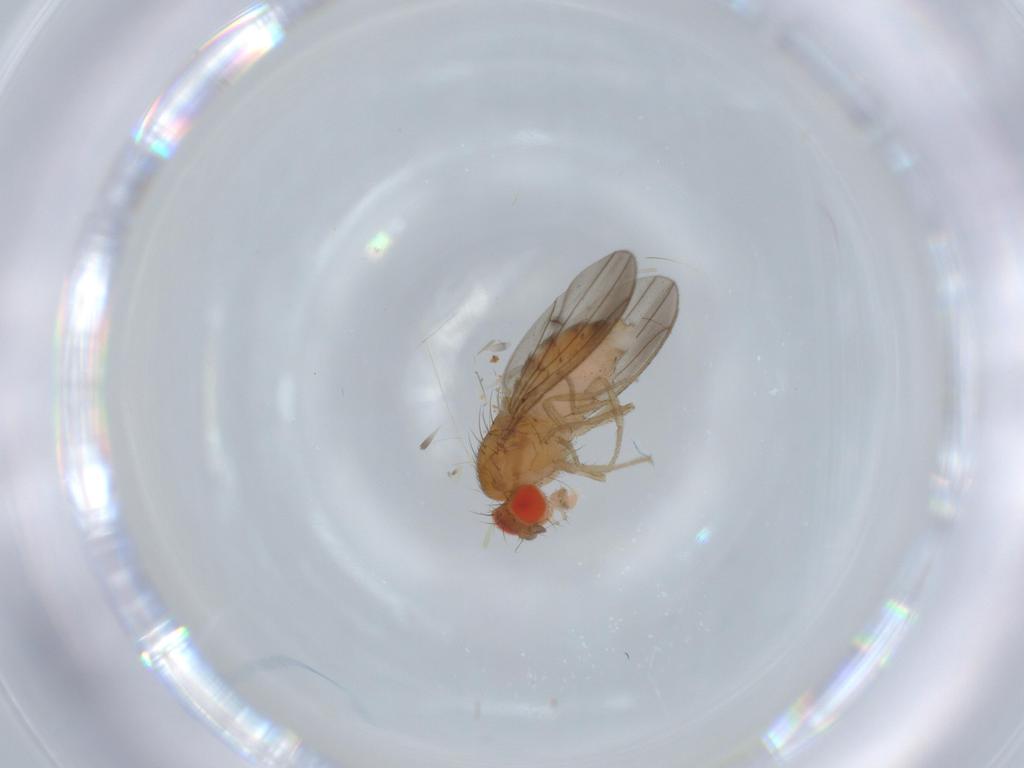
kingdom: Animalia
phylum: Arthropoda
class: Insecta
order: Diptera
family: Drosophilidae
